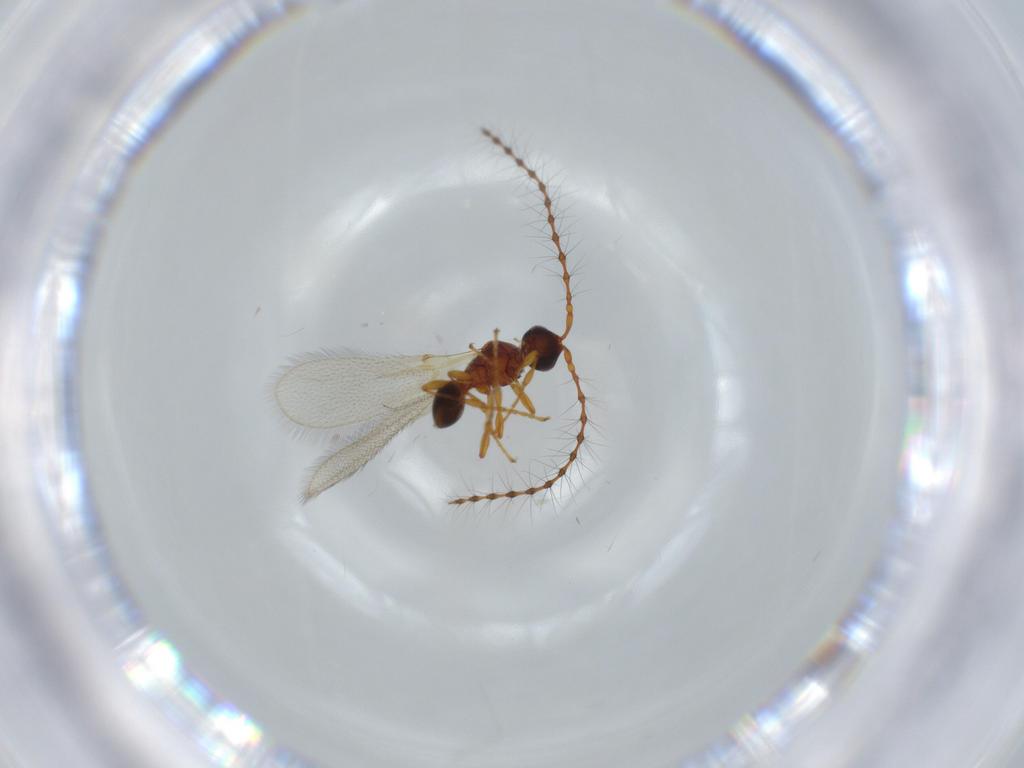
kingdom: Animalia
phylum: Arthropoda
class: Insecta
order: Hymenoptera
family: Diapriidae
